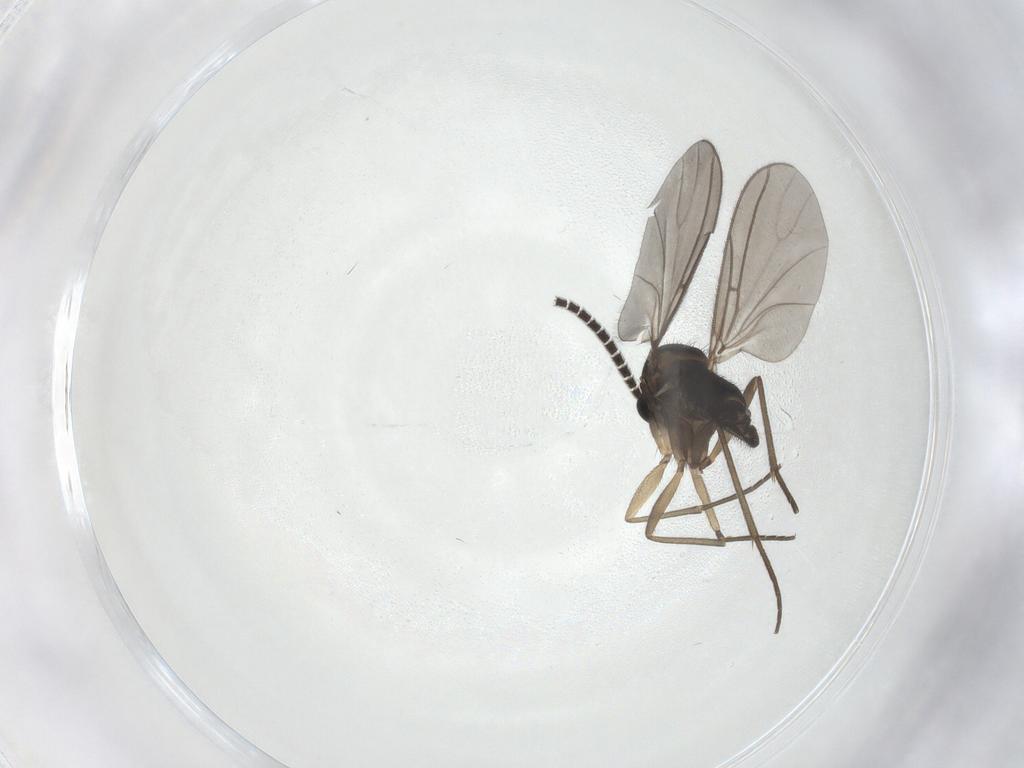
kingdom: Animalia
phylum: Arthropoda
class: Insecta
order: Diptera
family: Sciaridae
